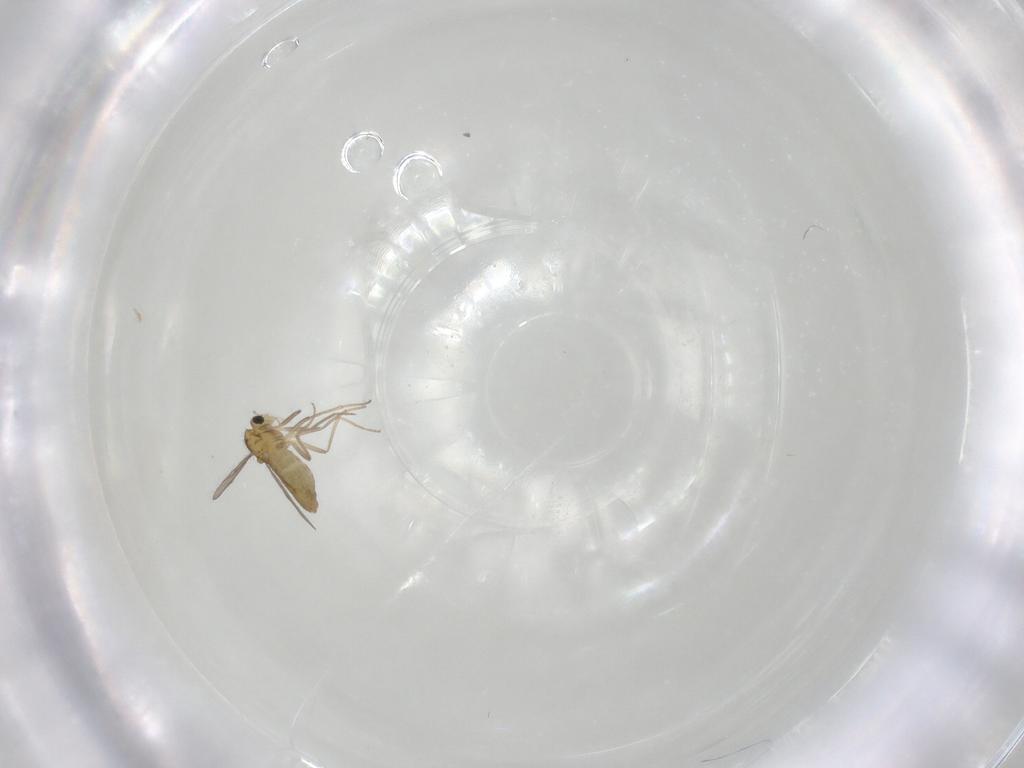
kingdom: Animalia
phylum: Arthropoda
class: Insecta
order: Diptera
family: Chironomidae
